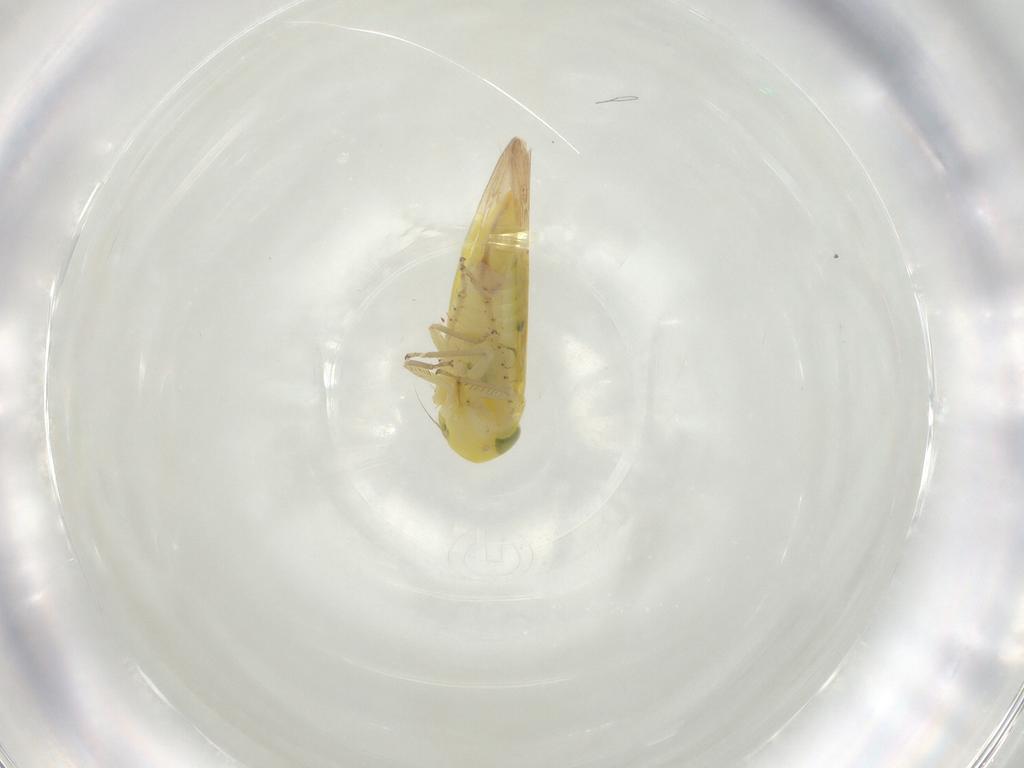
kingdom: Animalia
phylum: Arthropoda
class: Insecta
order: Hemiptera
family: Cicadellidae
